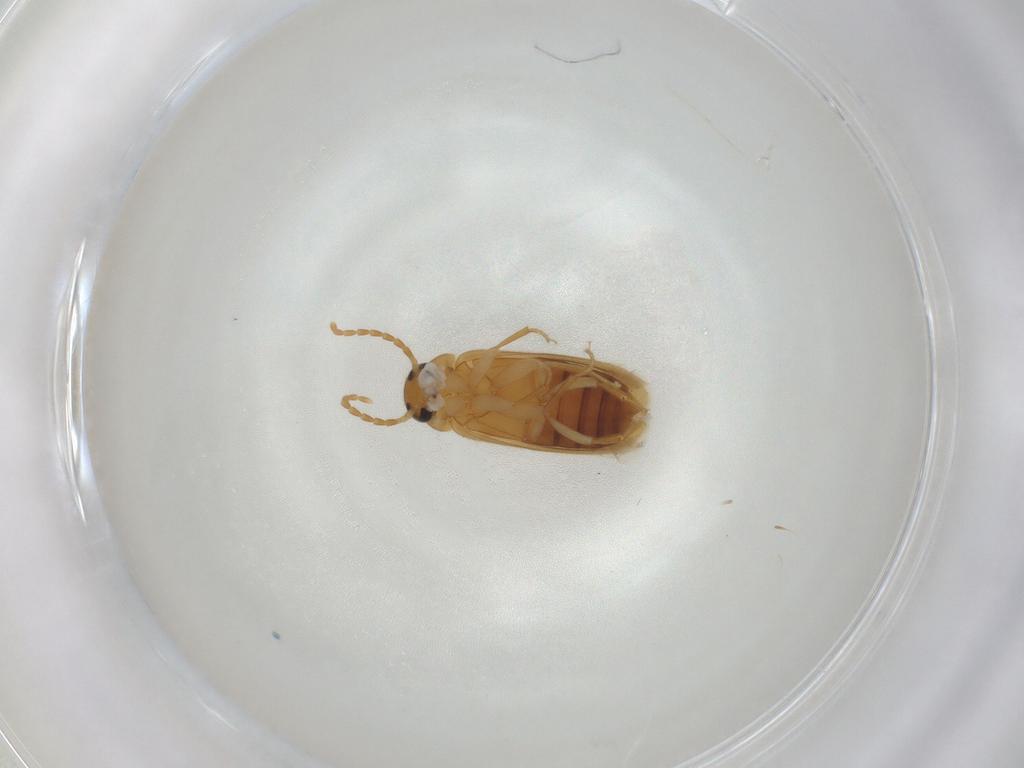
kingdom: Animalia
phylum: Arthropoda
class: Insecta
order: Coleoptera
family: Scraptiidae
